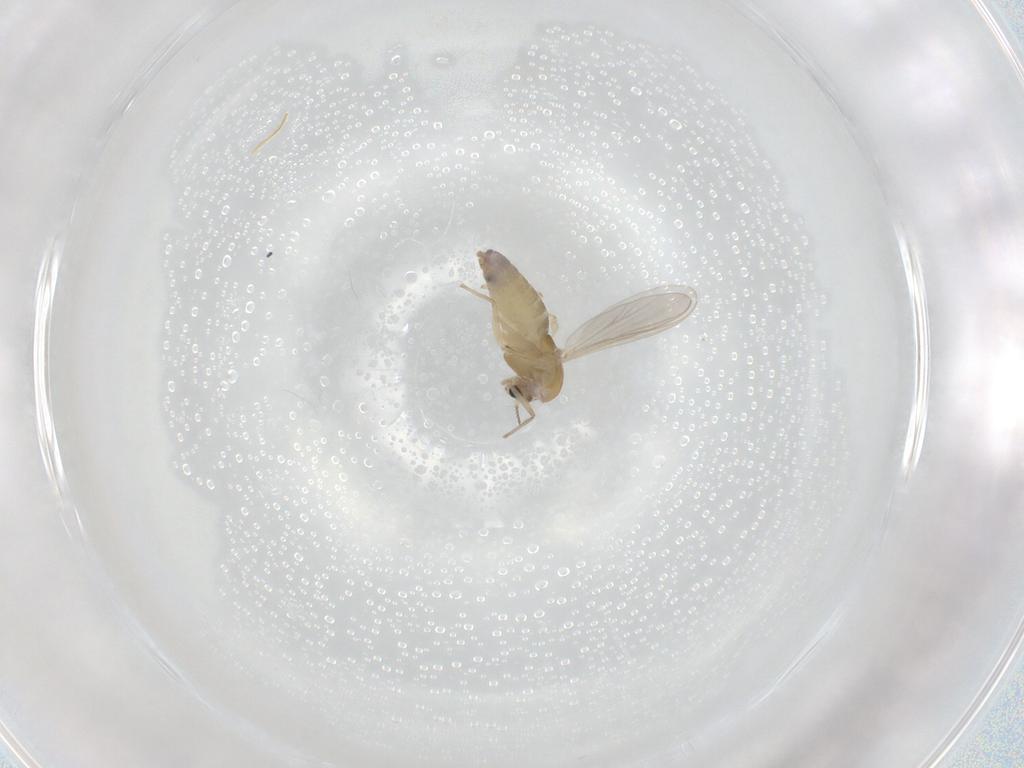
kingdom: Animalia
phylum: Arthropoda
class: Insecta
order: Diptera
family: Chironomidae
